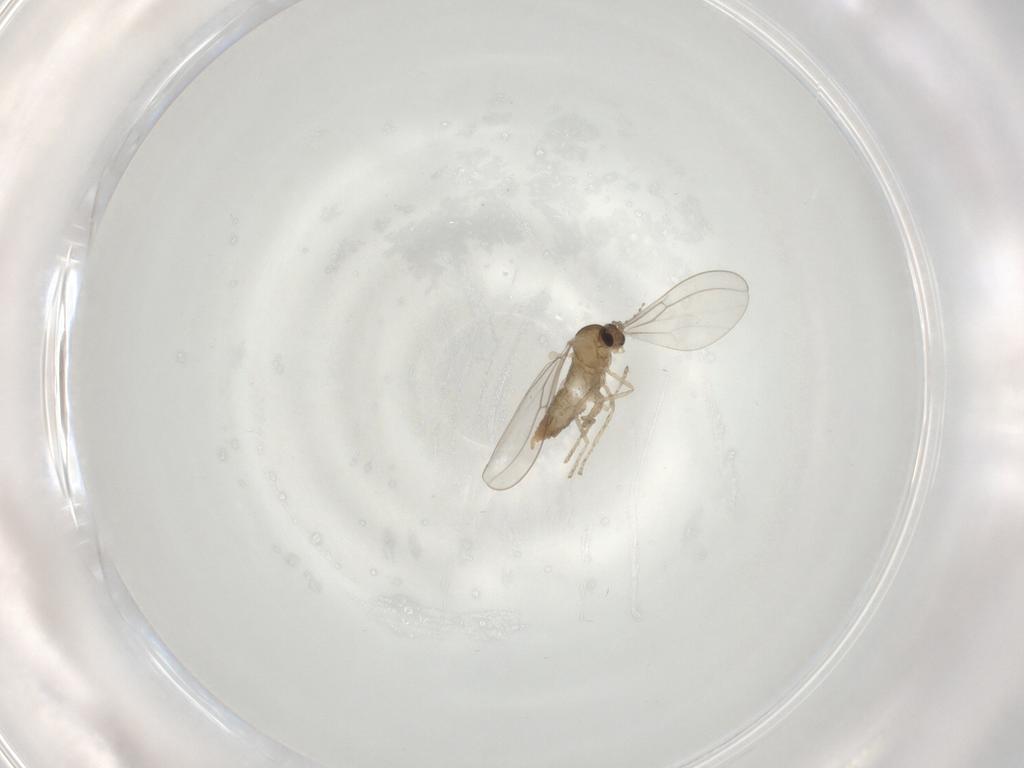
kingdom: Animalia
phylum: Arthropoda
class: Insecta
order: Diptera
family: Cecidomyiidae
